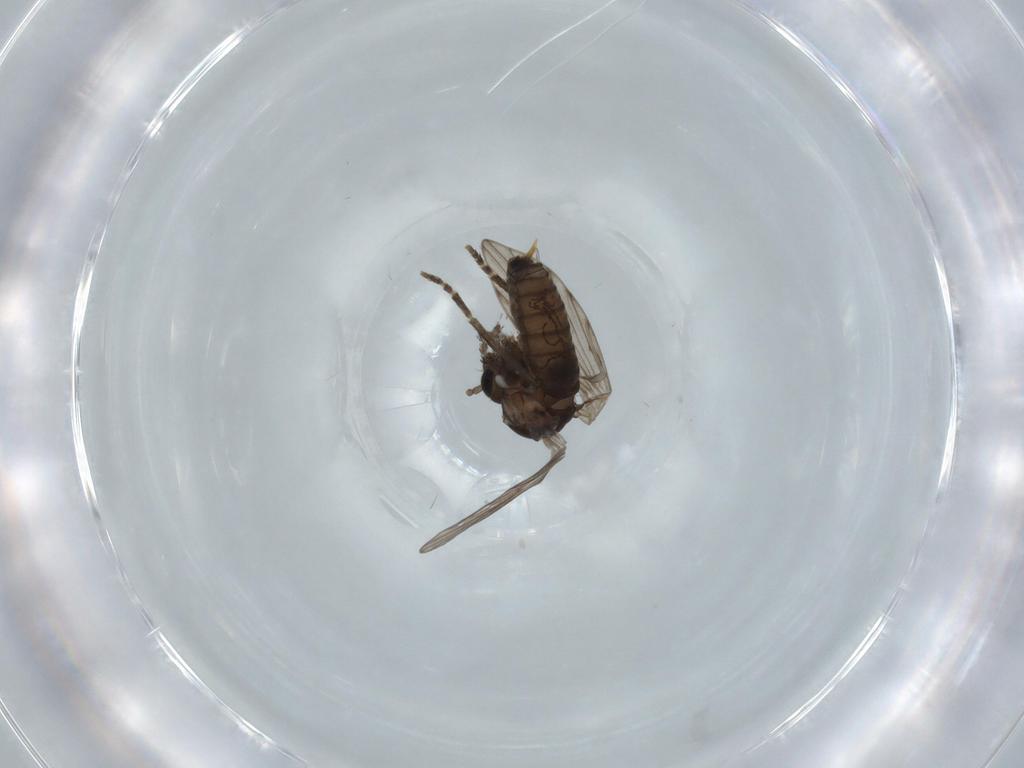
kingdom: Animalia
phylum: Arthropoda
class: Insecta
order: Diptera
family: Psychodidae
